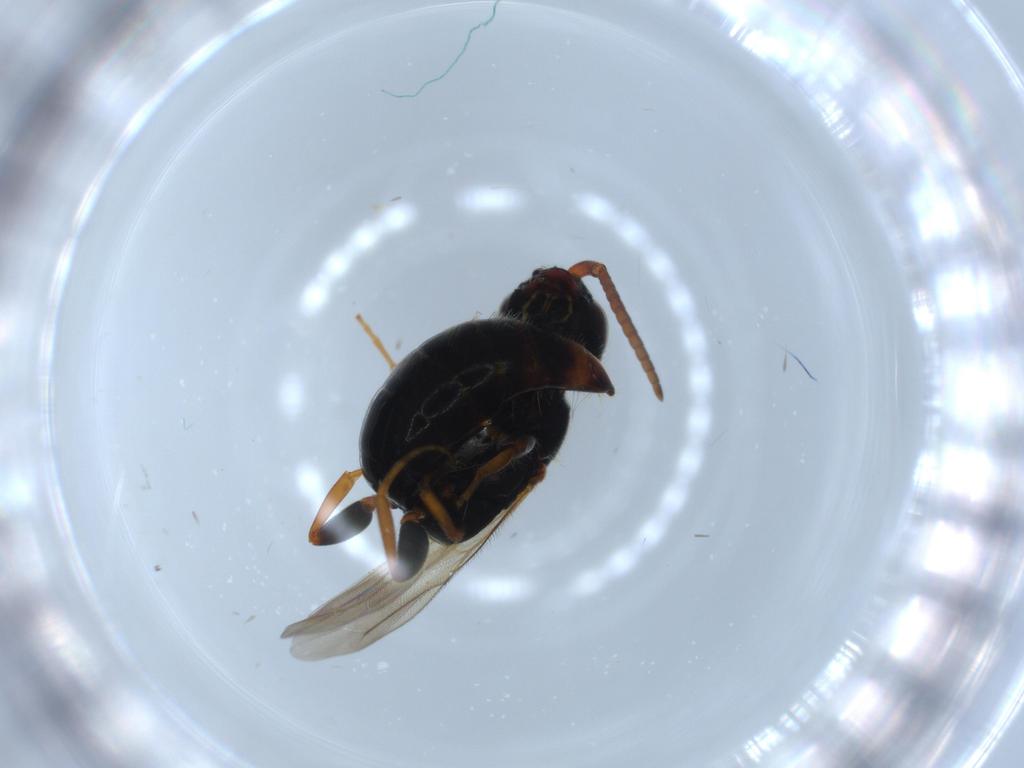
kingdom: Animalia
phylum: Arthropoda
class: Insecta
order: Hymenoptera
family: Bethylidae
